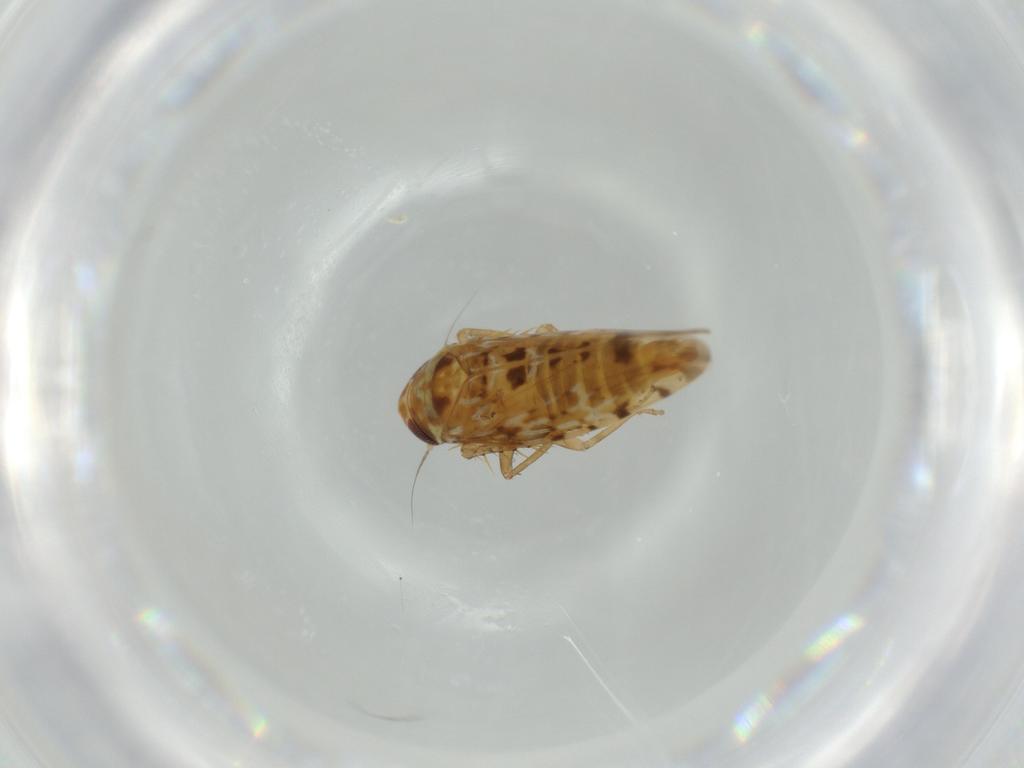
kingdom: Animalia
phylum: Arthropoda
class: Insecta
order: Hemiptera
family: Cicadellidae
